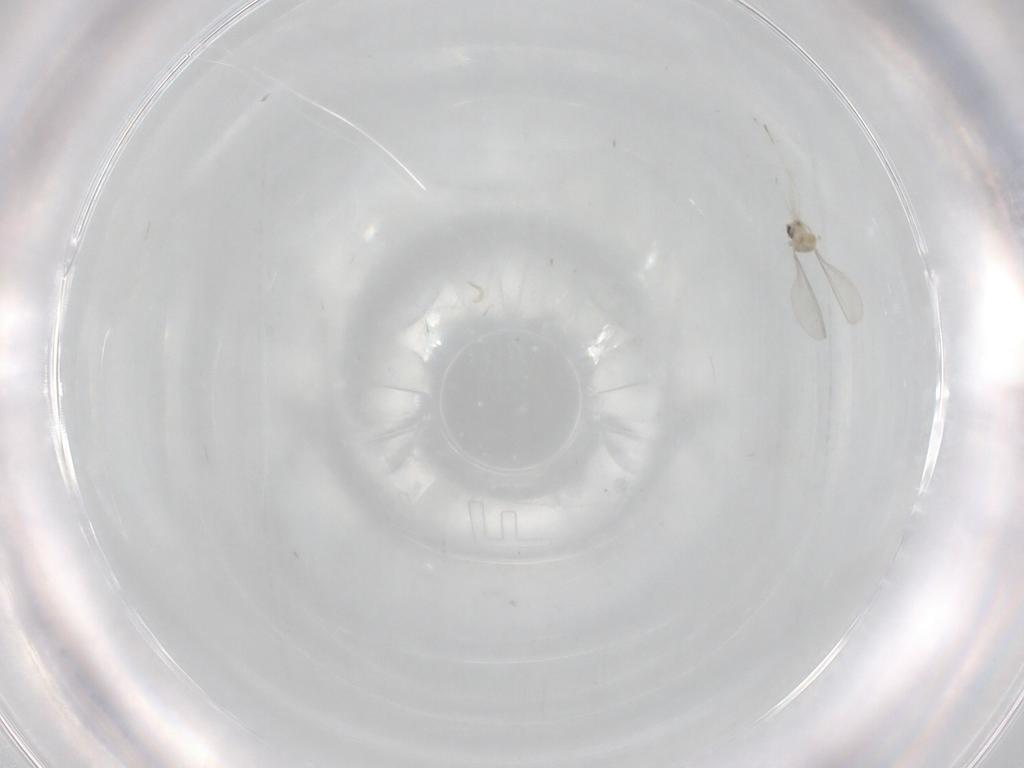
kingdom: Animalia
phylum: Arthropoda
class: Insecta
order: Diptera
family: Cecidomyiidae
